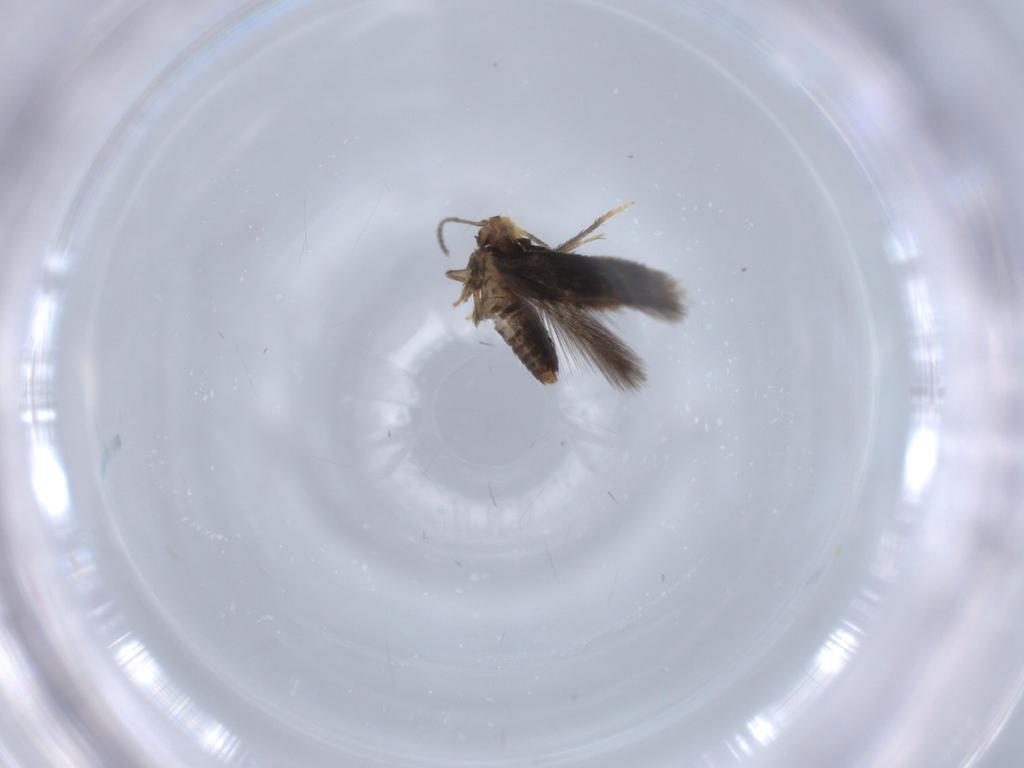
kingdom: Animalia
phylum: Arthropoda
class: Insecta
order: Lepidoptera
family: Nepticulidae
